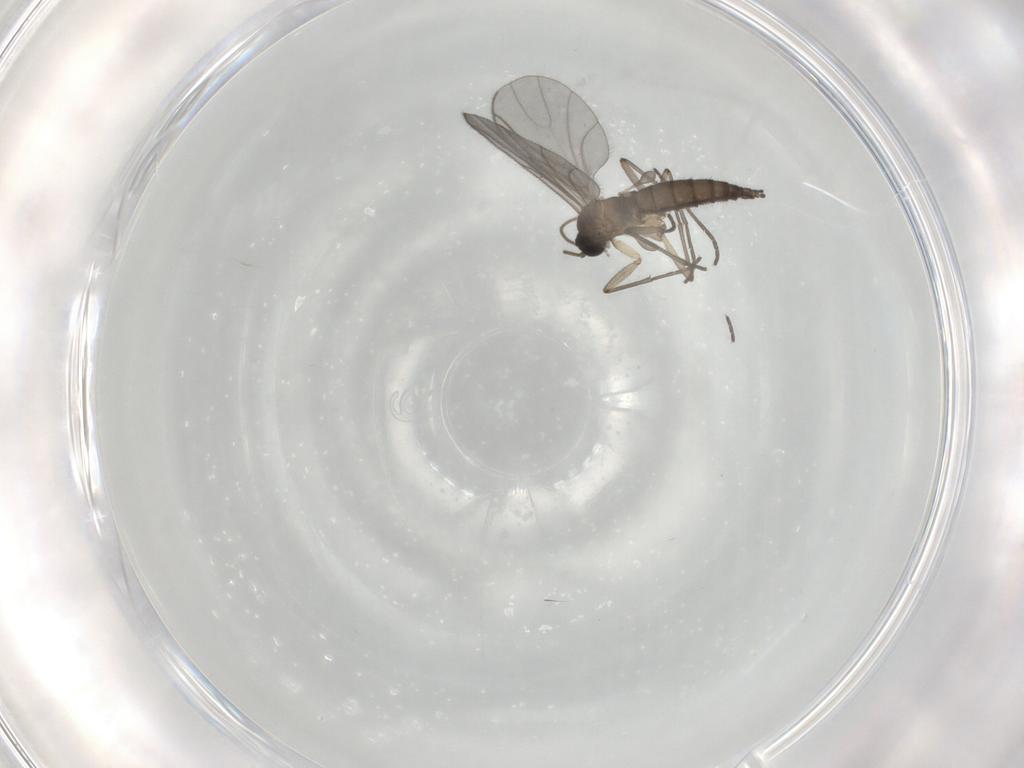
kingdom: Animalia
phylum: Arthropoda
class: Insecta
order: Diptera
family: Sciaridae
